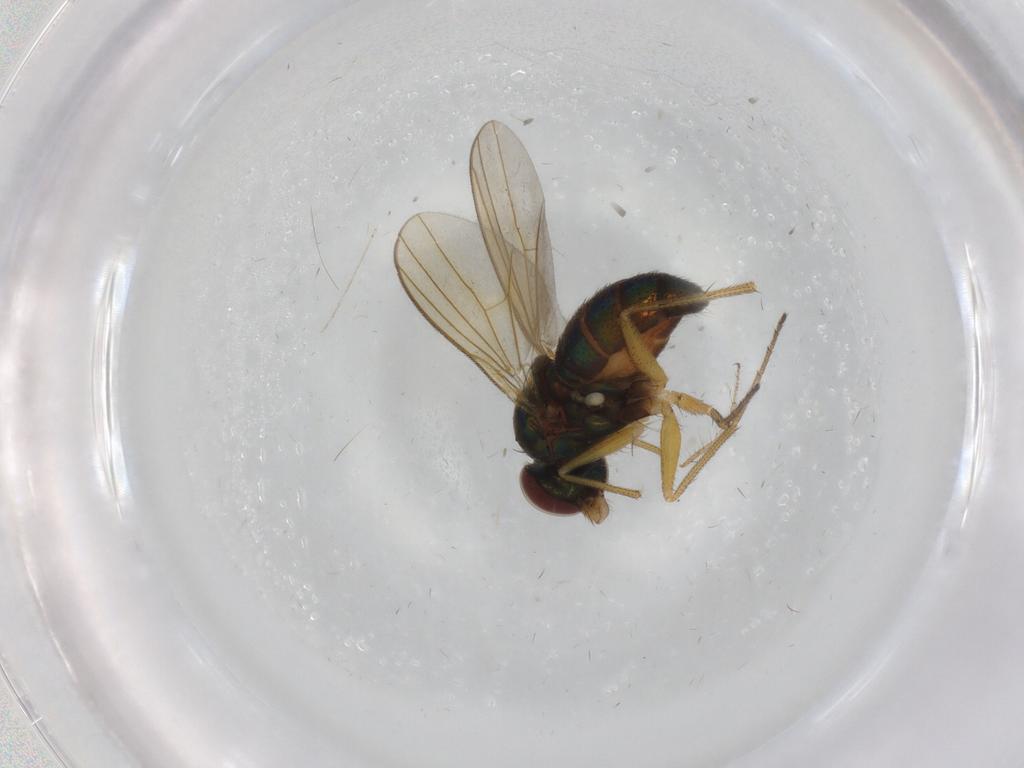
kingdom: Animalia
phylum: Arthropoda
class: Insecta
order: Diptera
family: Dolichopodidae
